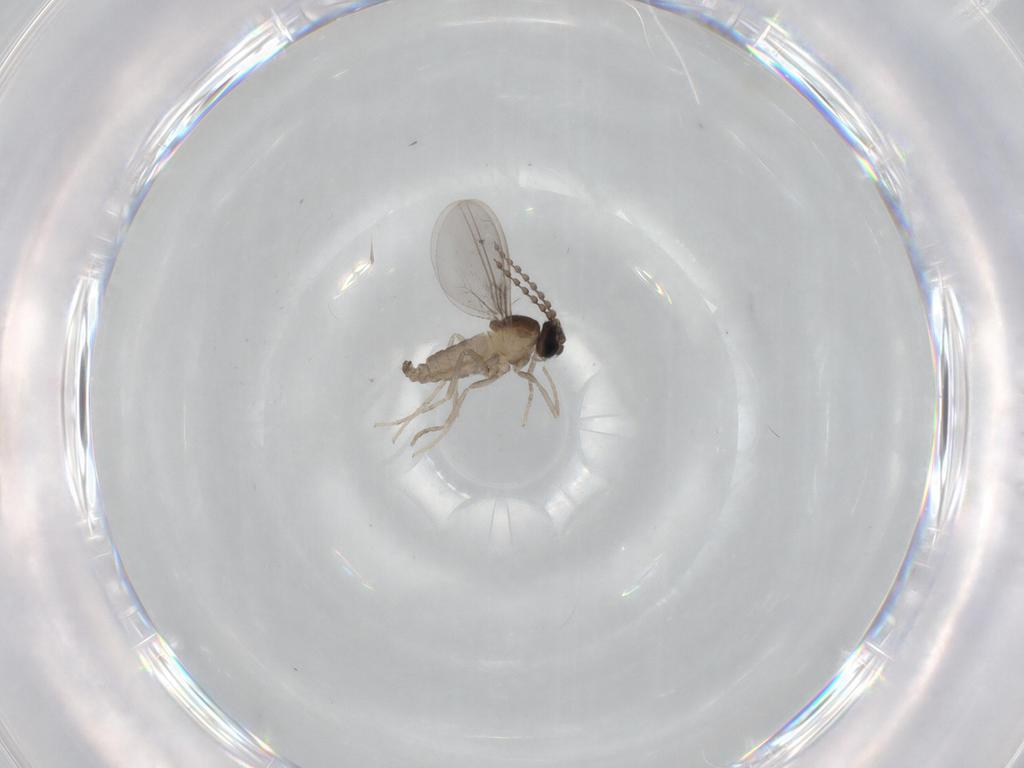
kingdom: Animalia
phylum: Arthropoda
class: Insecta
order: Diptera
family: Cecidomyiidae
